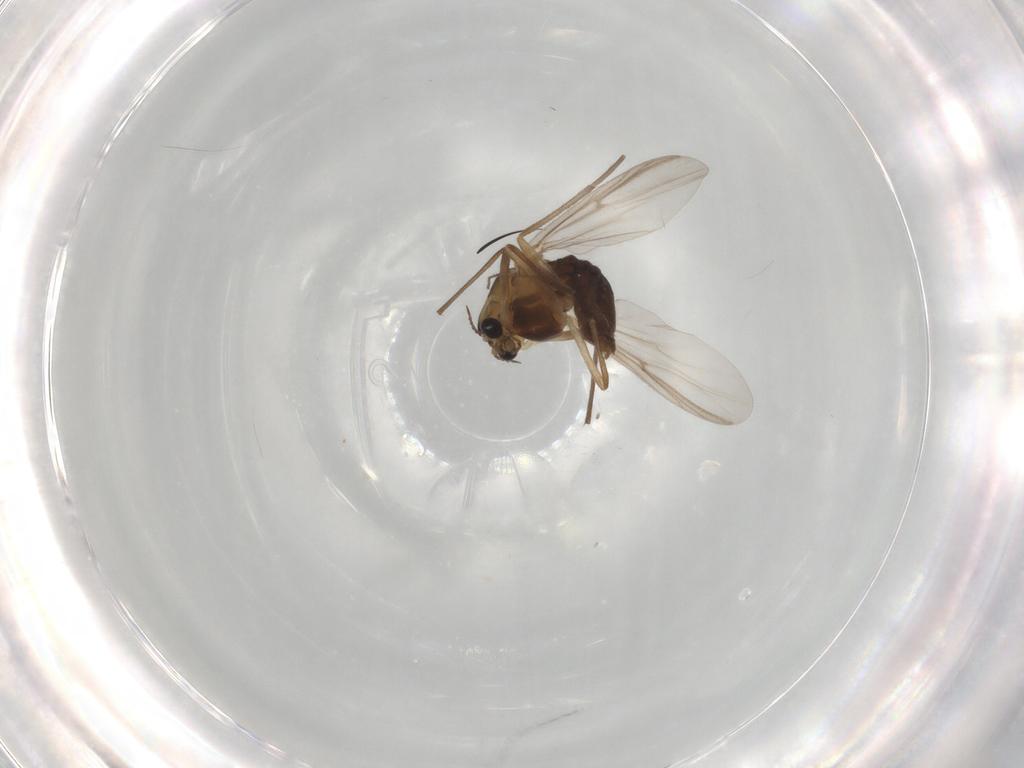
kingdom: Animalia
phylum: Arthropoda
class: Insecta
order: Diptera
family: Chironomidae
